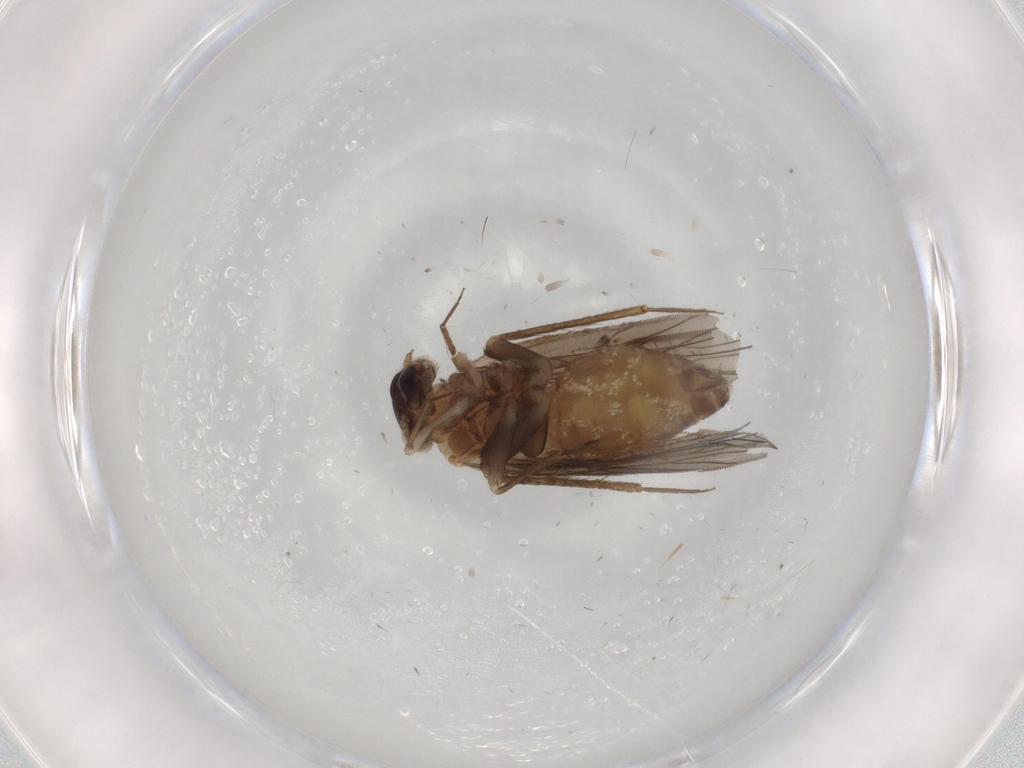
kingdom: Animalia
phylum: Arthropoda
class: Insecta
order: Psocodea
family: Lepidopsocidae
